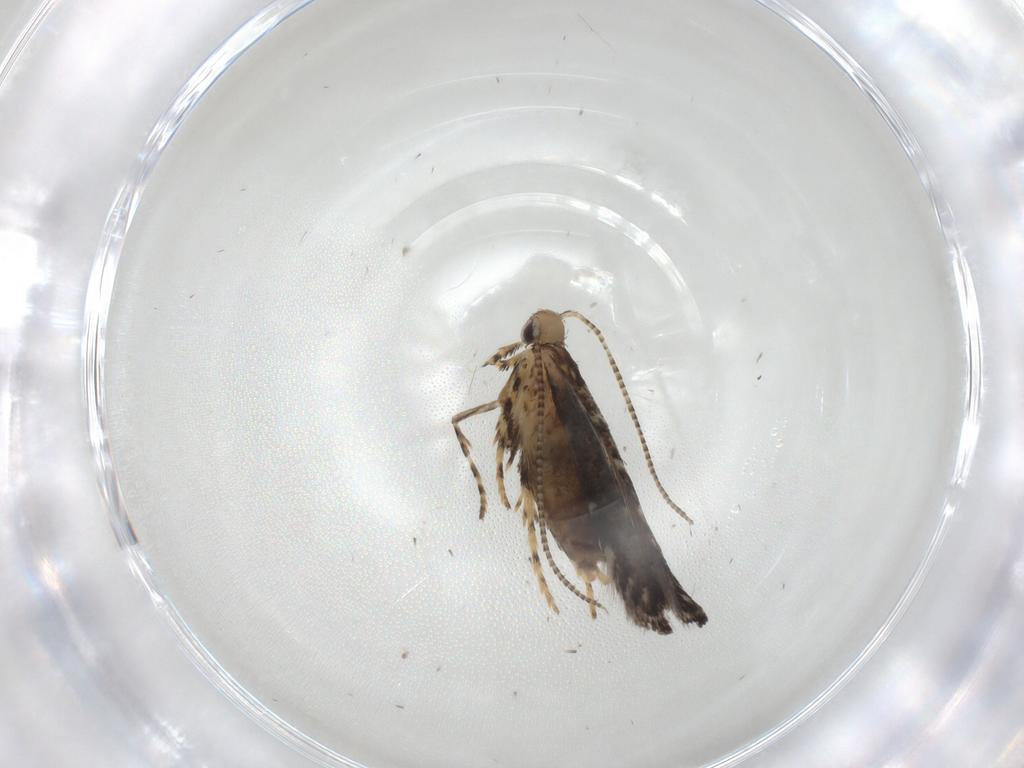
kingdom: Animalia
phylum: Arthropoda
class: Insecta
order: Lepidoptera
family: Gracillariidae
